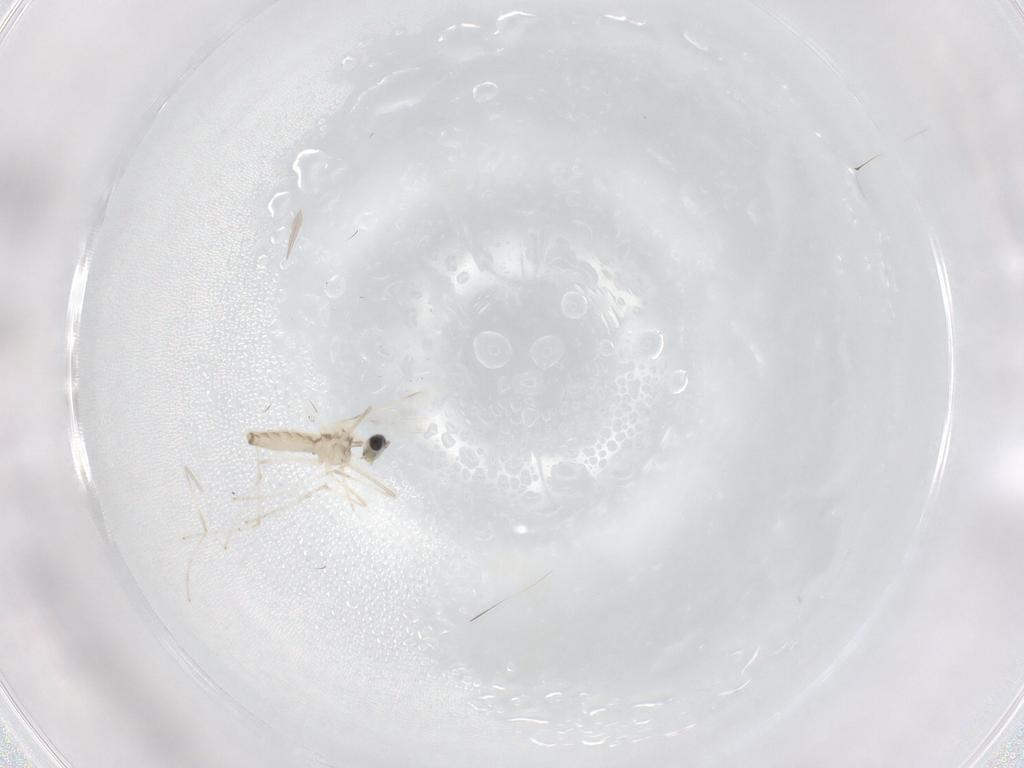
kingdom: Animalia
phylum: Arthropoda
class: Insecta
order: Diptera
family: Cecidomyiidae
